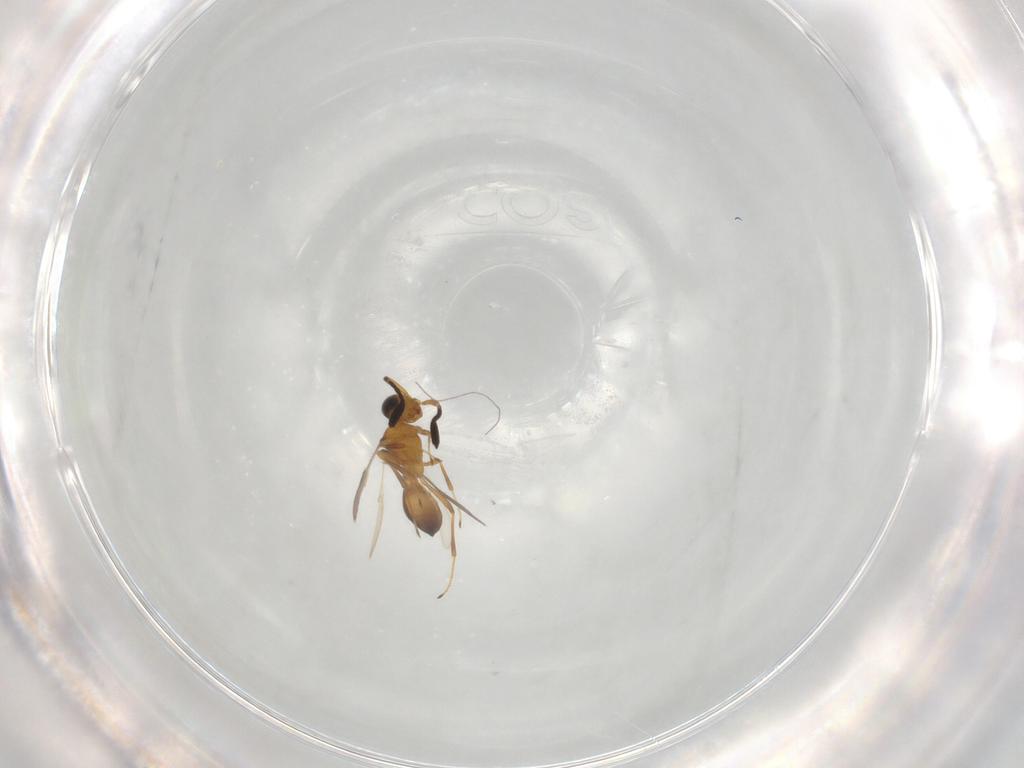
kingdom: Animalia
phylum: Arthropoda
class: Insecta
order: Hymenoptera
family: Scelionidae
